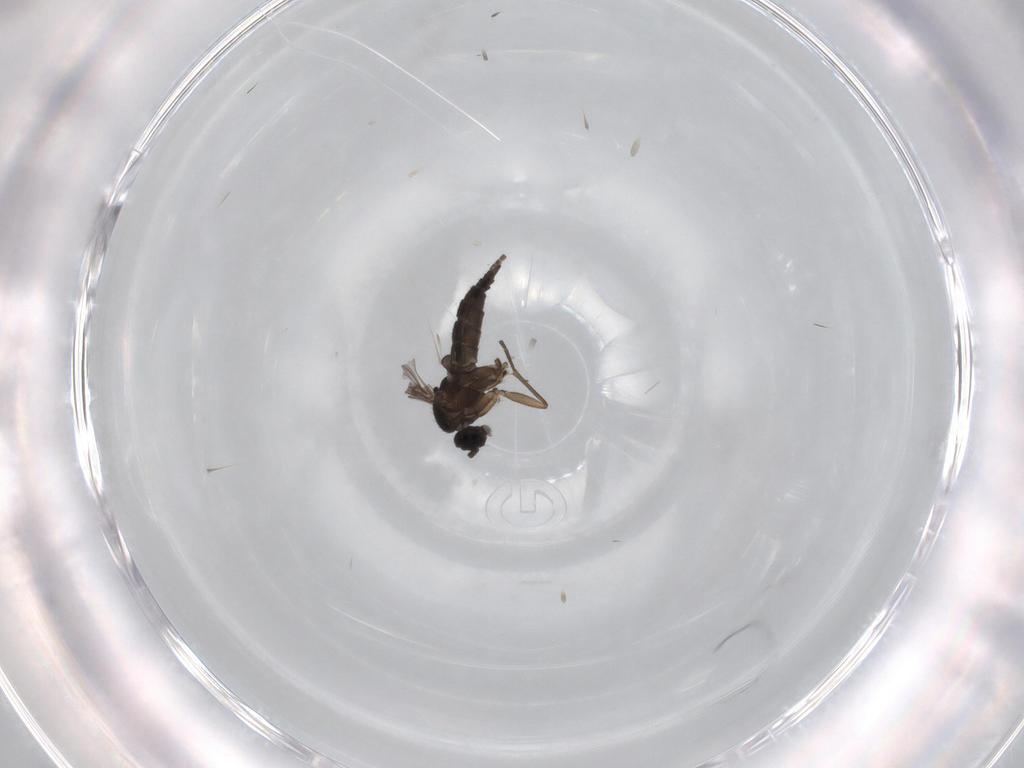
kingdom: Animalia
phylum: Arthropoda
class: Insecta
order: Diptera
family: Sciaridae
